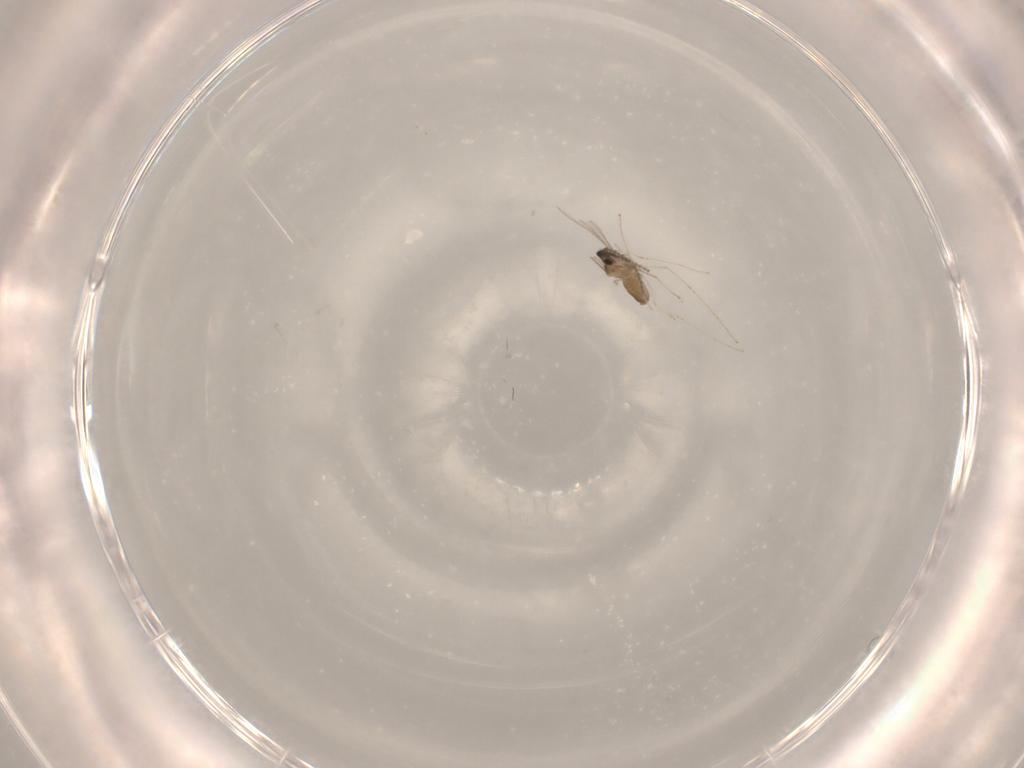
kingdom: Animalia
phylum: Arthropoda
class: Insecta
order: Diptera
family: Cecidomyiidae
